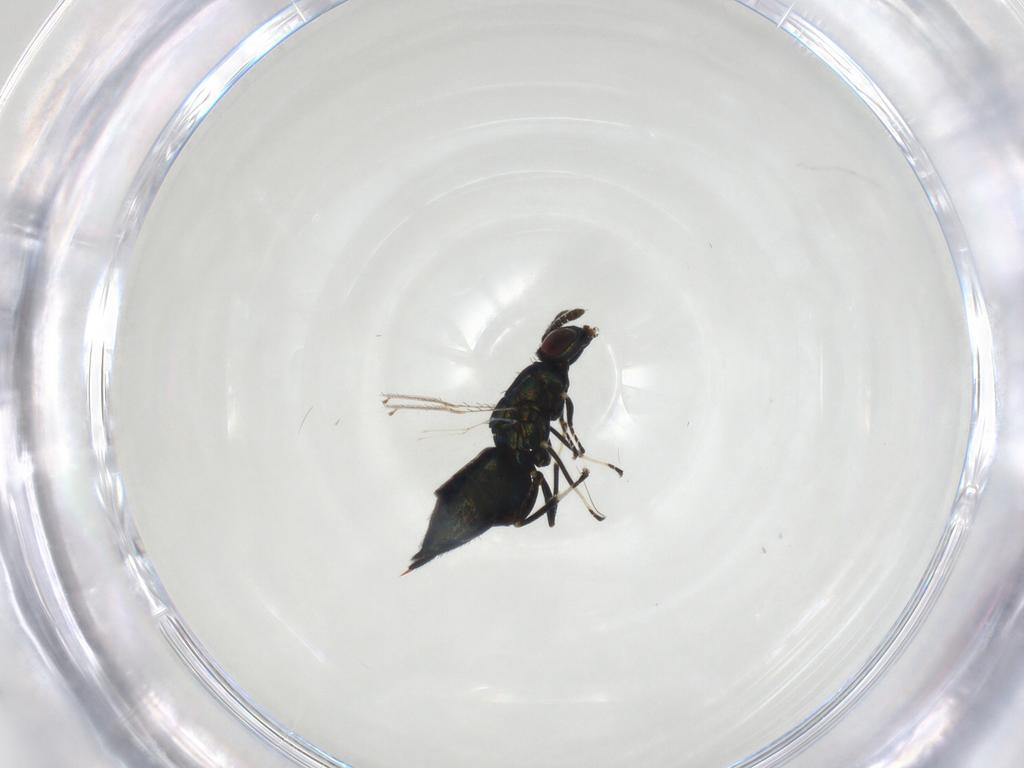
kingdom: Animalia
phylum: Arthropoda
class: Insecta
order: Hymenoptera
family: Eulophidae
